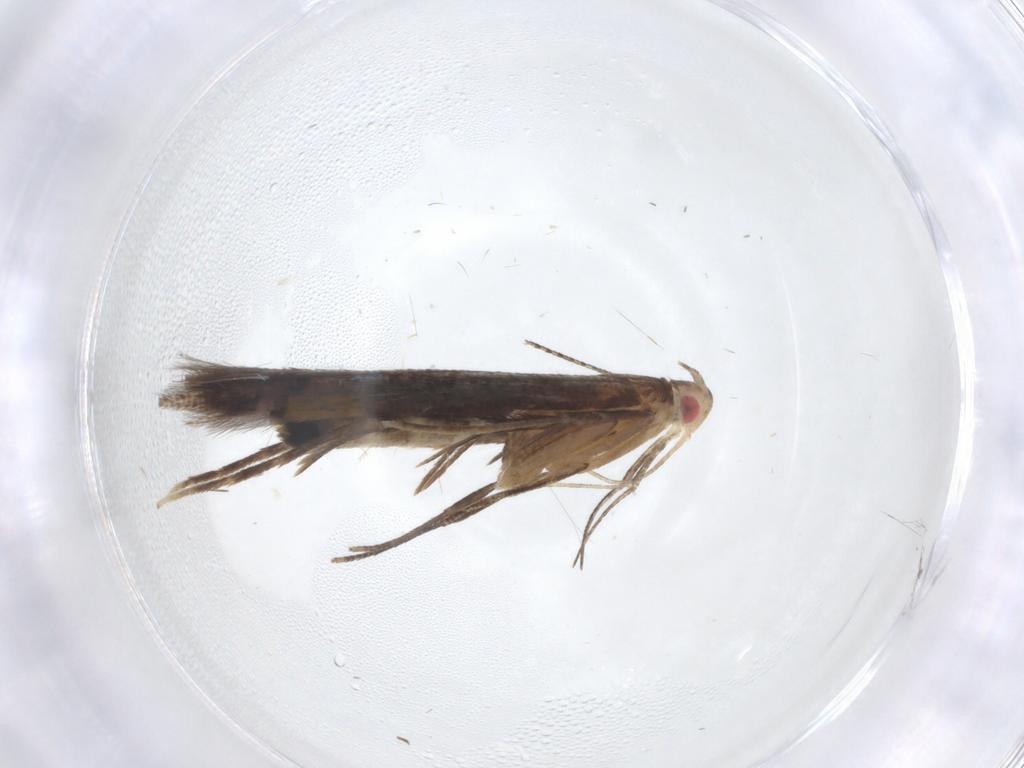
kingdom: Animalia
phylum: Arthropoda
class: Insecta
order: Lepidoptera
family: Cosmopterigidae
